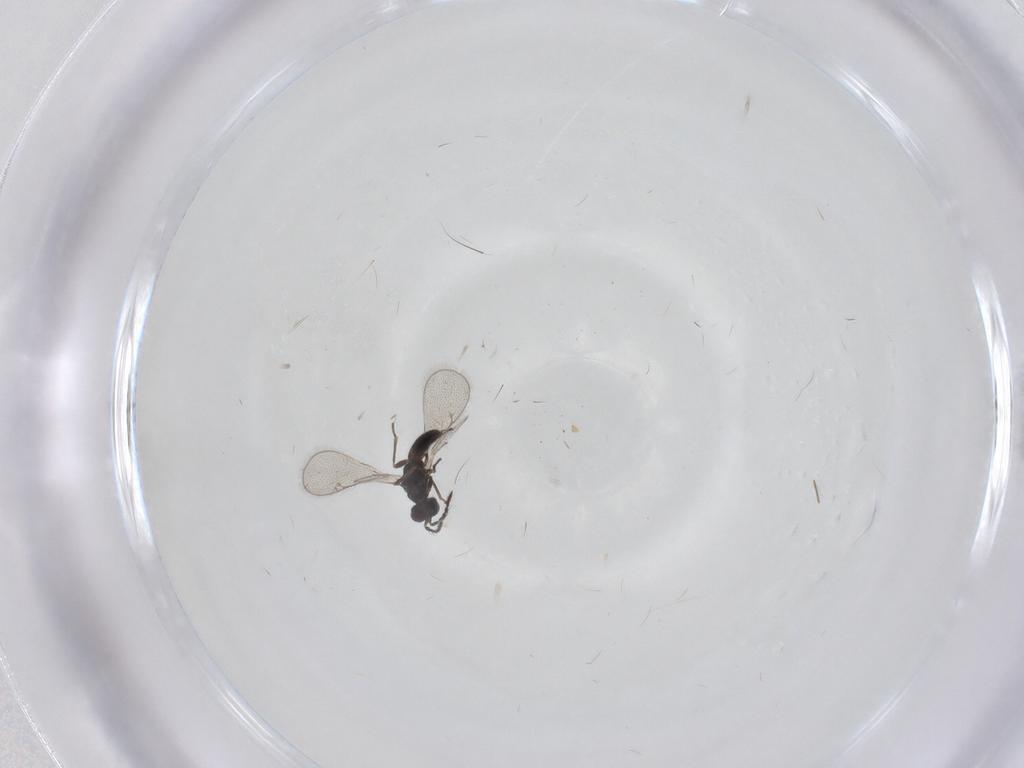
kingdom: Animalia
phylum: Arthropoda
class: Insecta
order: Hymenoptera
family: Eulophidae
